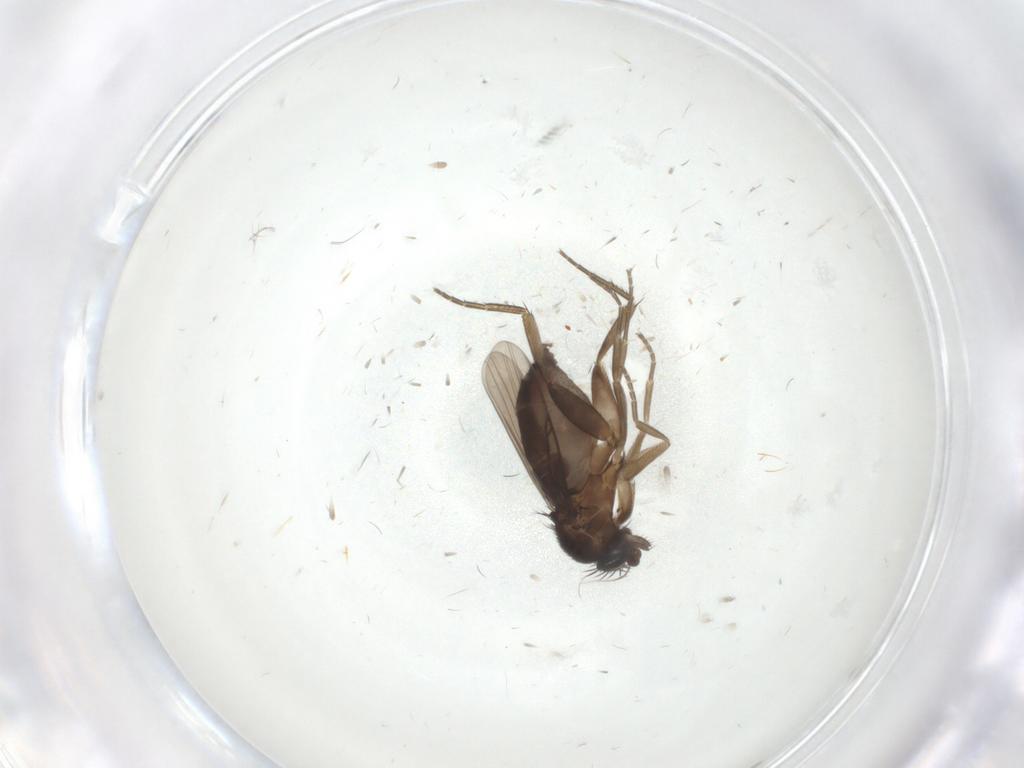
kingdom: Animalia
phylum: Arthropoda
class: Insecta
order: Diptera
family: Phoridae
